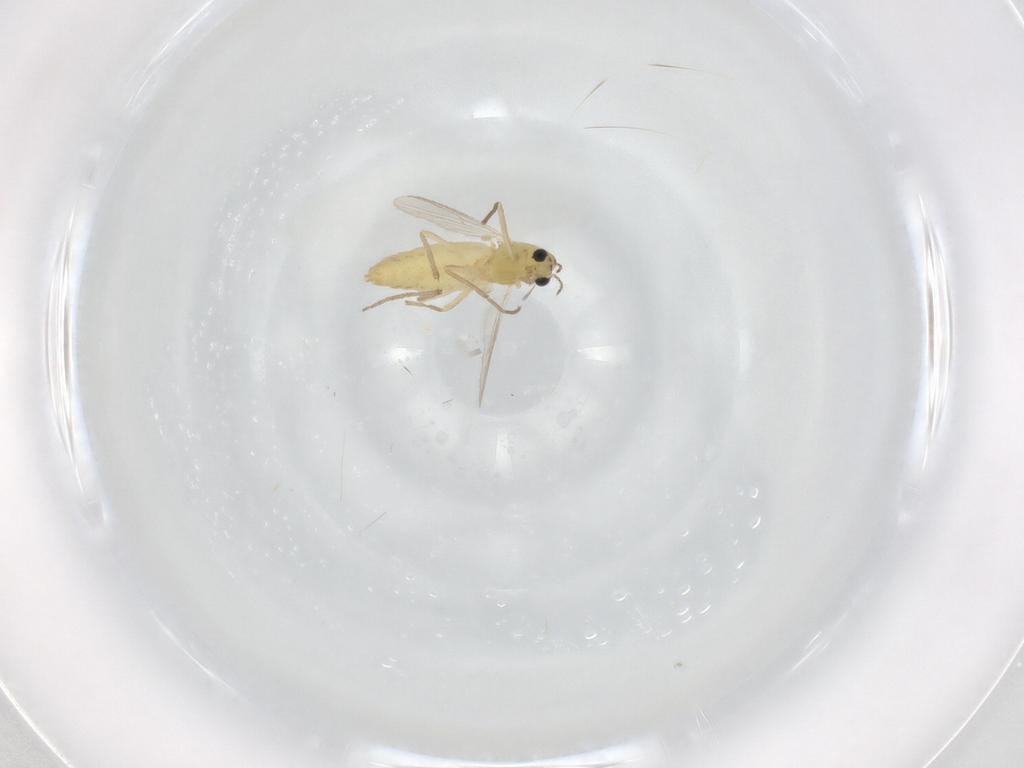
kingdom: Animalia
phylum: Arthropoda
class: Insecta
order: Diptera
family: Chironomidae
